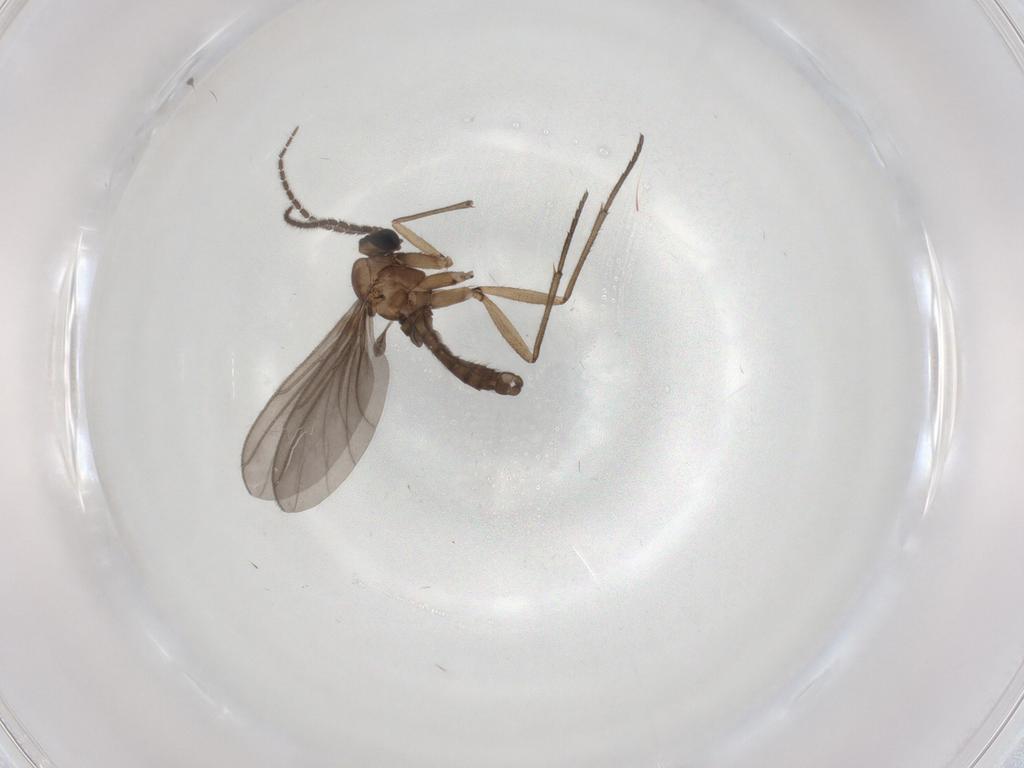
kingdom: Animalia
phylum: Arthropoda
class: Insecta
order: Diptera
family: Sciaridae
